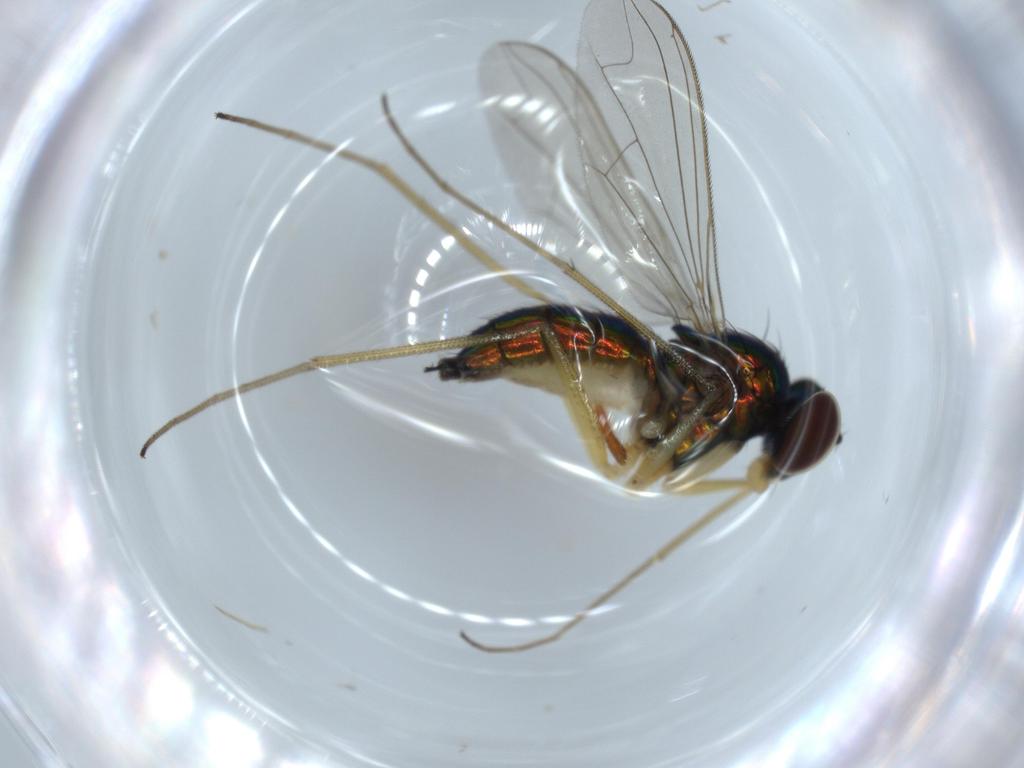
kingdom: Animalia
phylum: Arthropoda
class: Insecta
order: Diptera
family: Dolichopodidae
